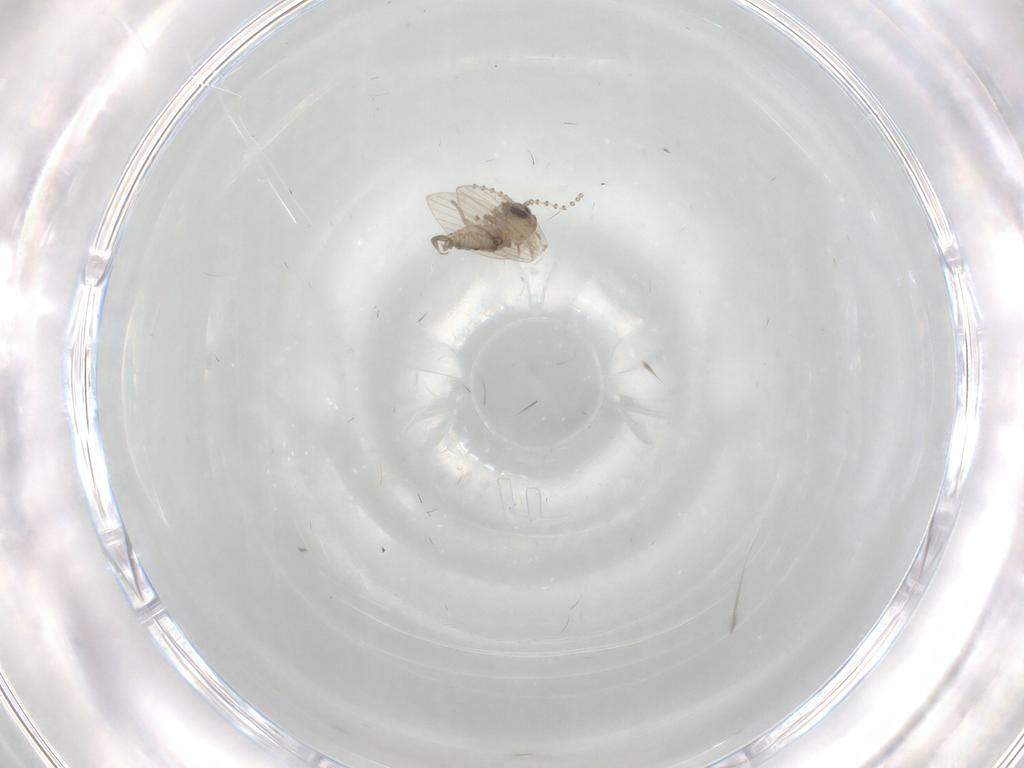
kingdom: Animalia
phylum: Arthropoda
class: Insecta
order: Diptera
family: Psychodidae
